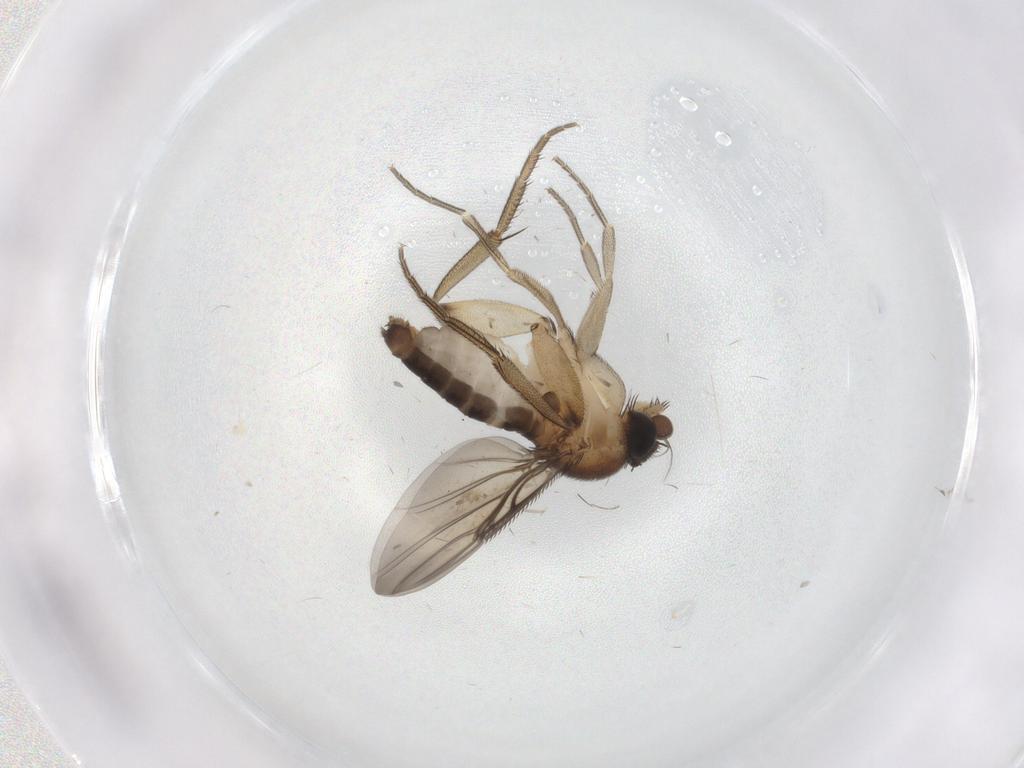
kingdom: Animalia
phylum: Arthropoda
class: Insecta
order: Diptera
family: Phoridae
